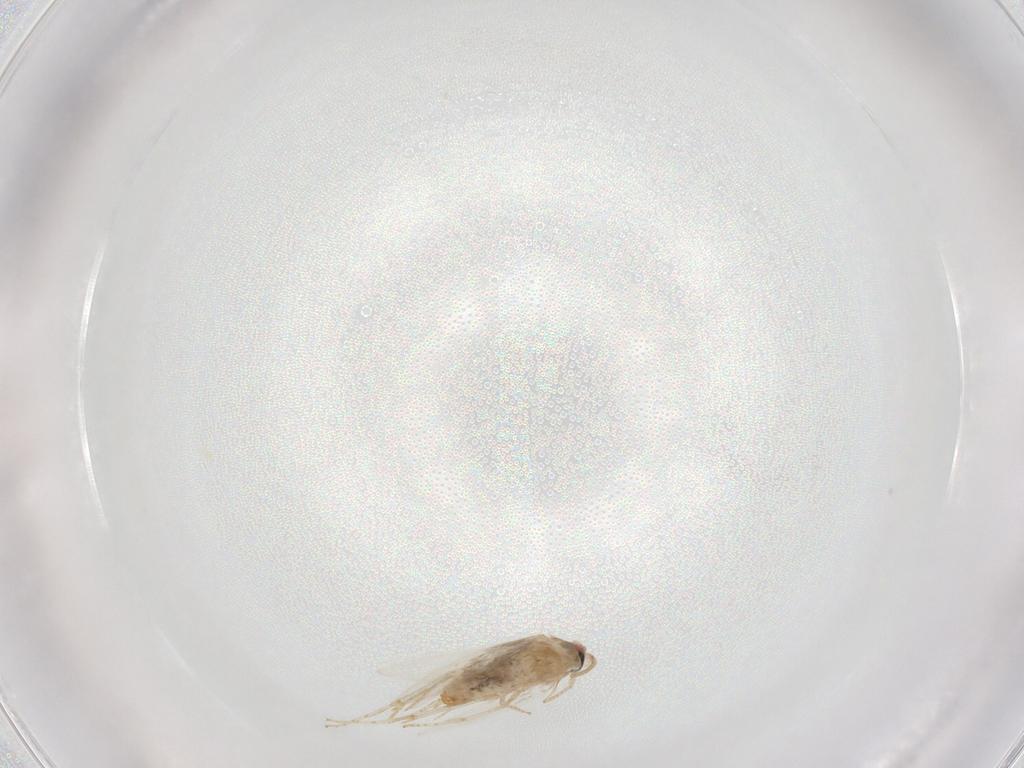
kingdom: Animalia
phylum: Arthropoda
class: Insecta
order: Lepidoptera
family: Nepticulidae
